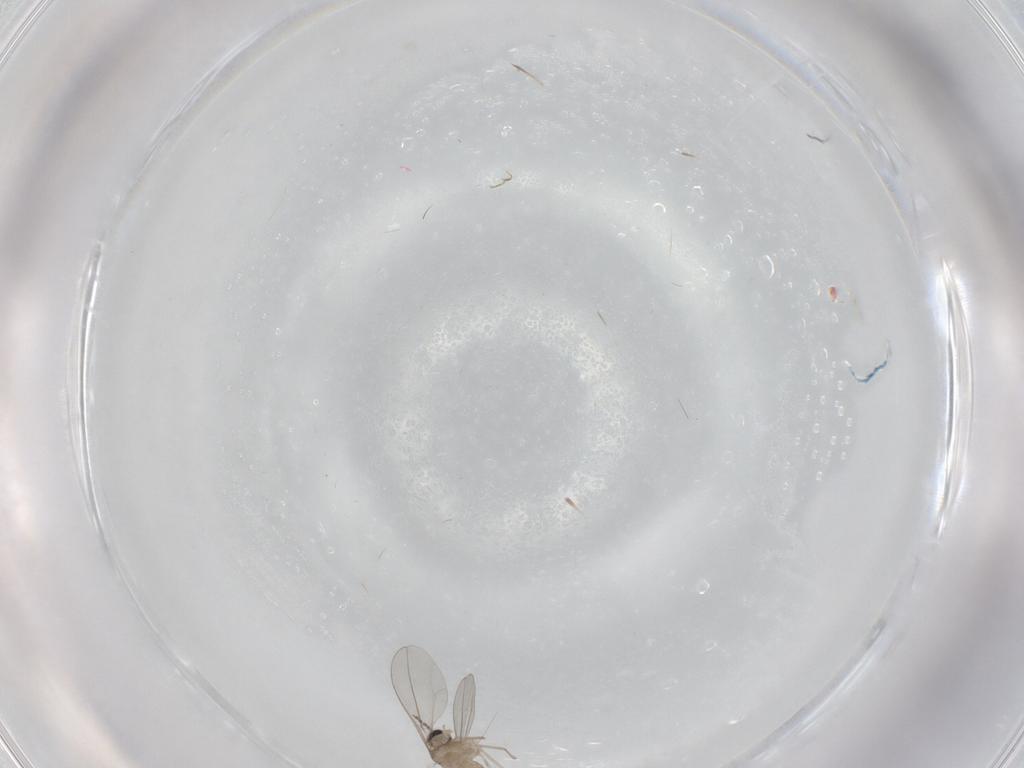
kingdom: Animalia
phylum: Arthropoda
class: Insecta
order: Diptera
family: Cecidomyiidae
